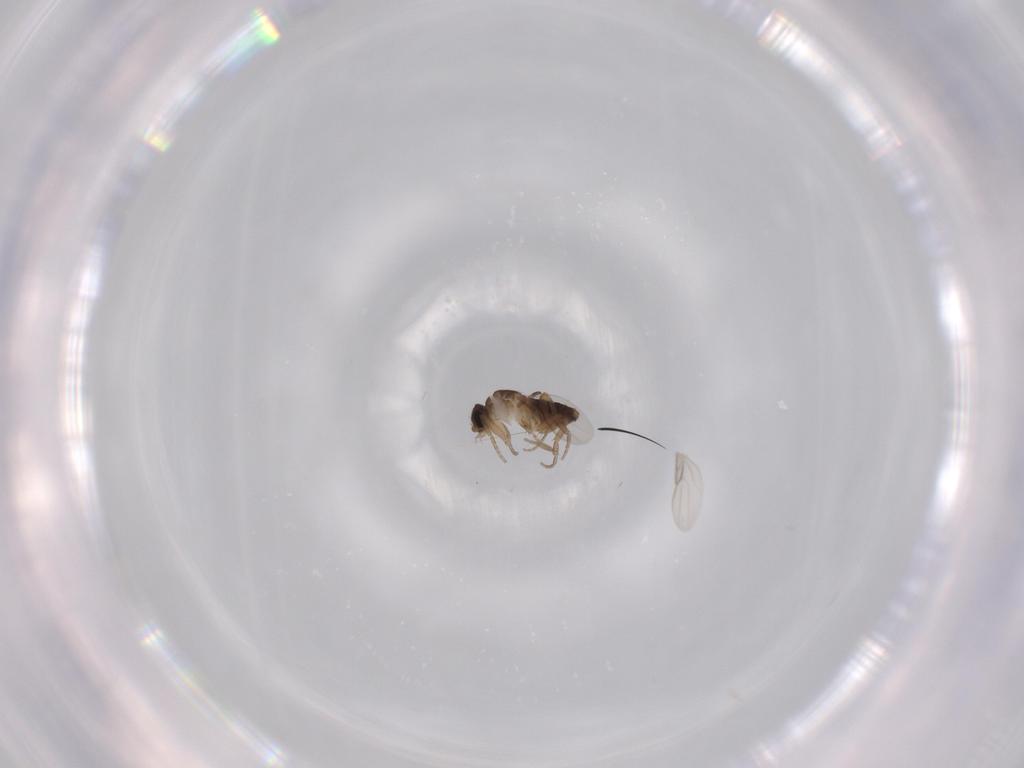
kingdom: Animalia
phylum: Arthropoda
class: Insecta
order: Diptera
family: Phoridae
